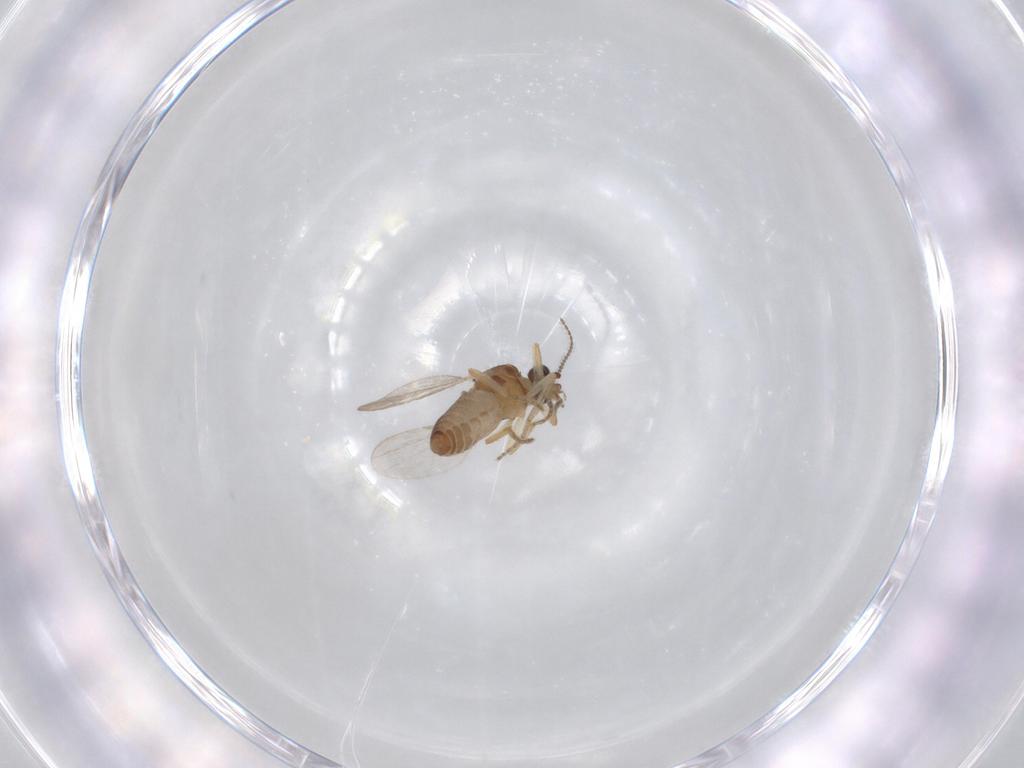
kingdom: Animalia
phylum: Arthropoda
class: Insecta
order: Diptera
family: Ceratopogonidae
